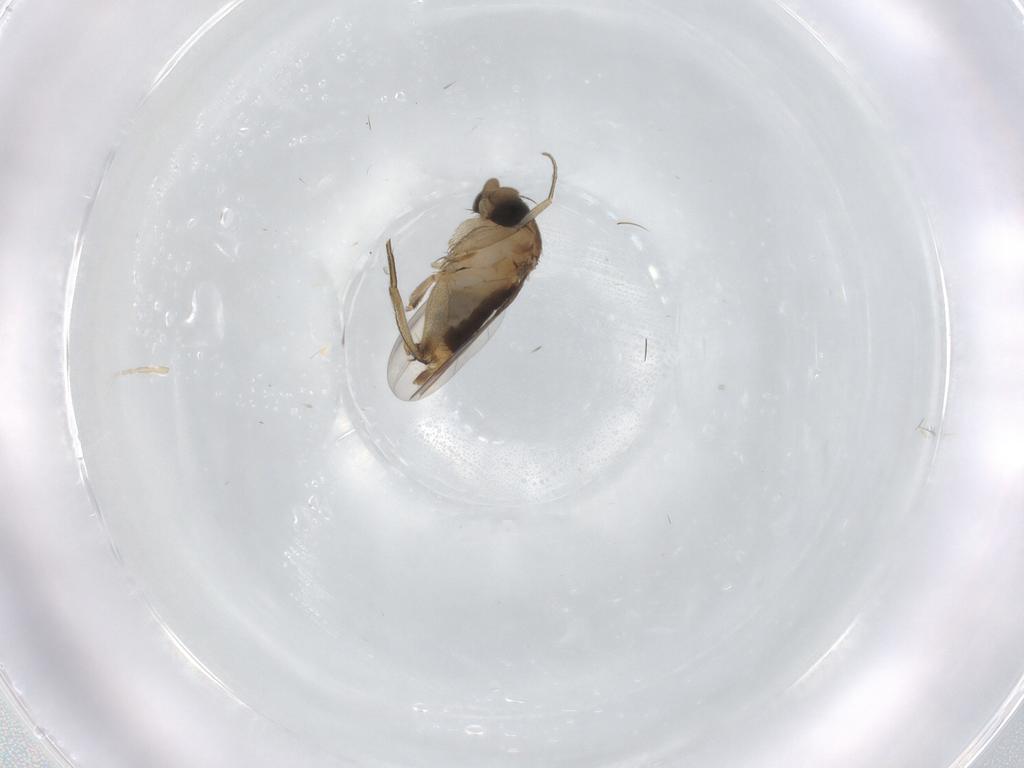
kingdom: Animalia
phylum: Arthropoda
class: Insecta
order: Diptera
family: Phoridae
